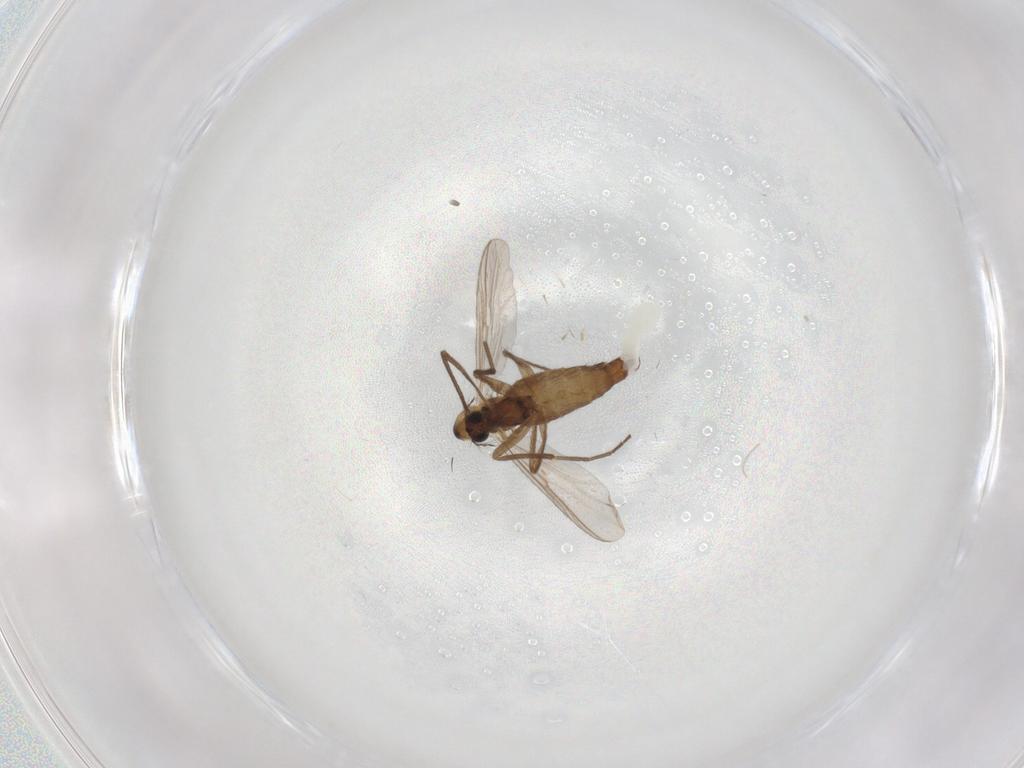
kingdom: Animalia
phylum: Arthropoda
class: Insecta
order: Diptera
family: Chironomidae
